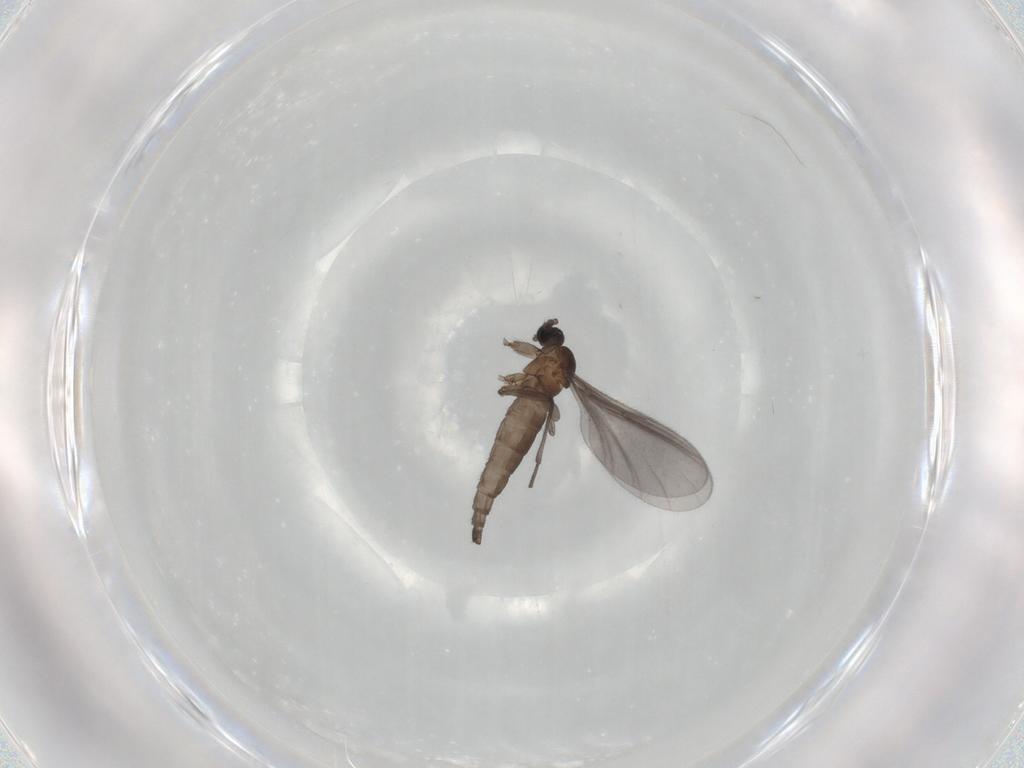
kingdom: Animalia
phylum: Arthropoda
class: Insecta
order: Diptera
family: Sciaridae
